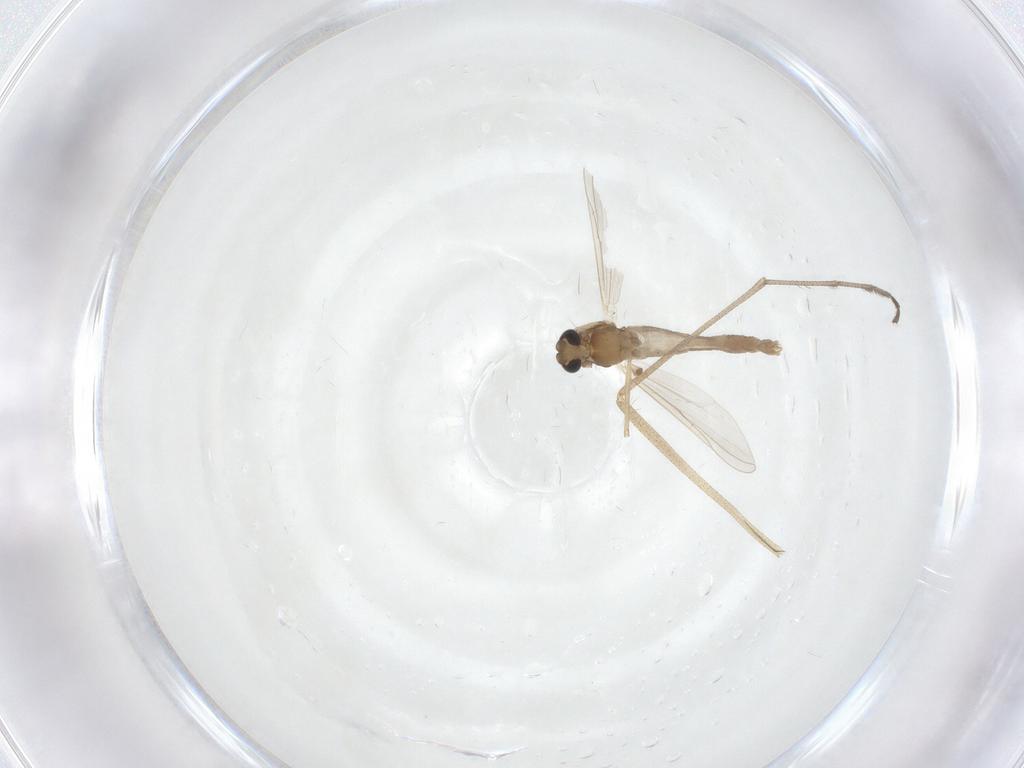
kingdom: Animalia
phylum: Arthropoda
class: Insecta
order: Diptera
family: Chironomidae
